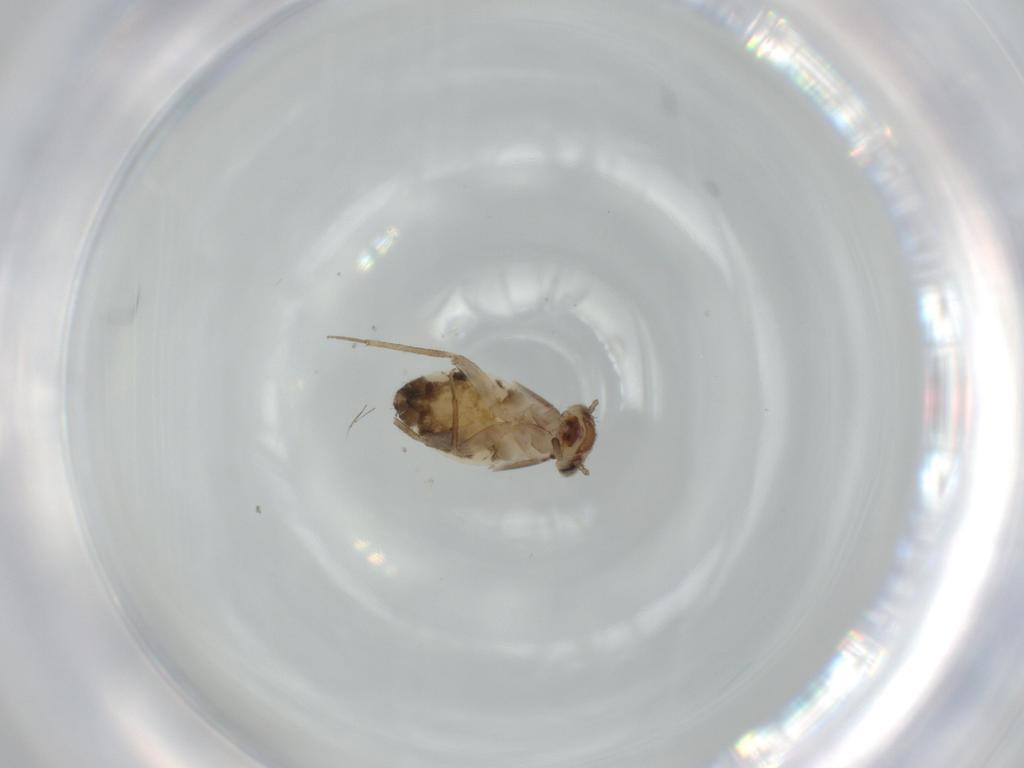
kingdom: Animalia
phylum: Arthropoda
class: Insecta
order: Psocodea
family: Lepidopsocidae
